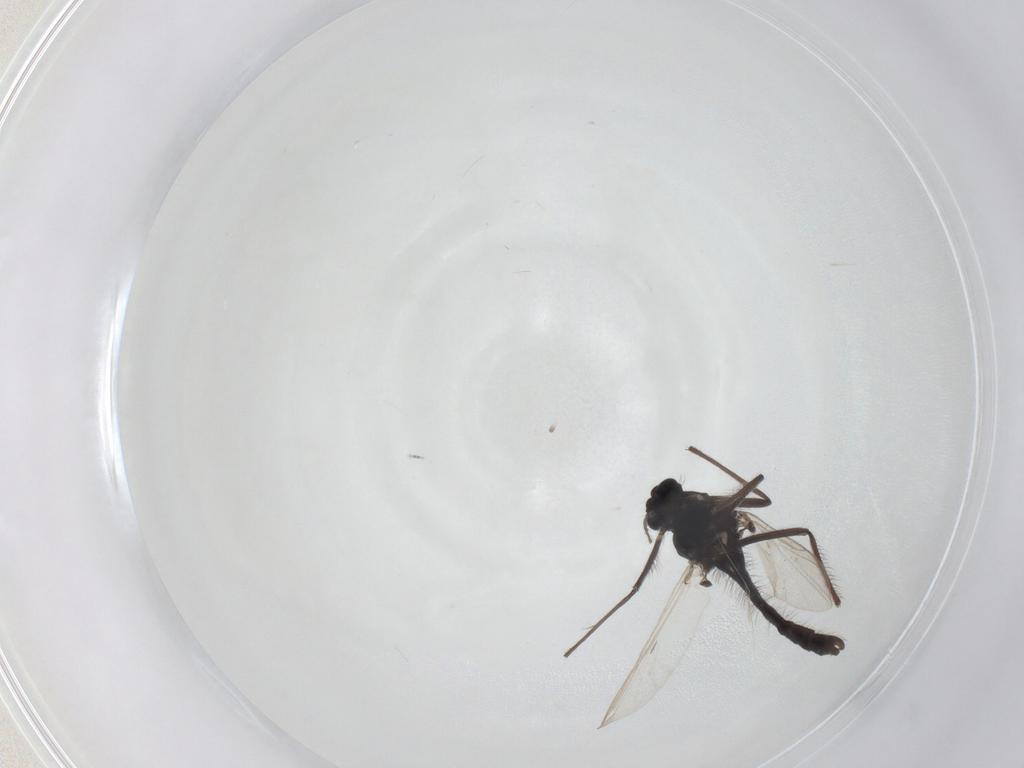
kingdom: Animalia
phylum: Arthropoda
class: Insecta
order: Diptera
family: Chironomidae
